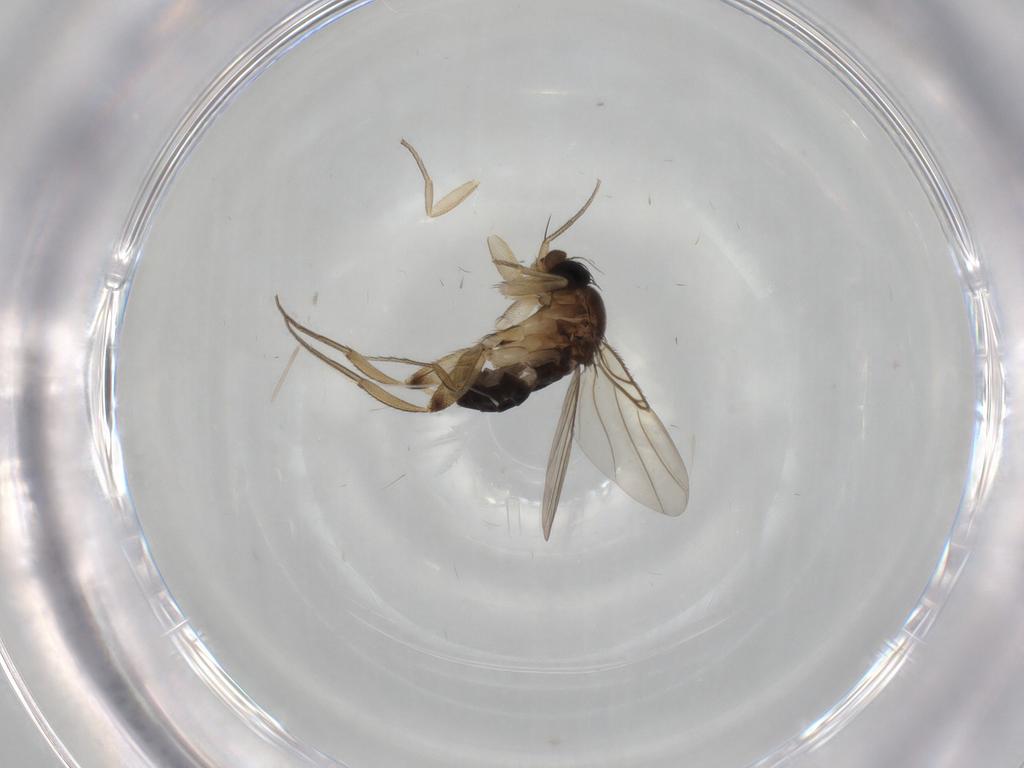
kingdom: Animalia
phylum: Arthropoda
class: Insecta
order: Diptera
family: Phoridae
